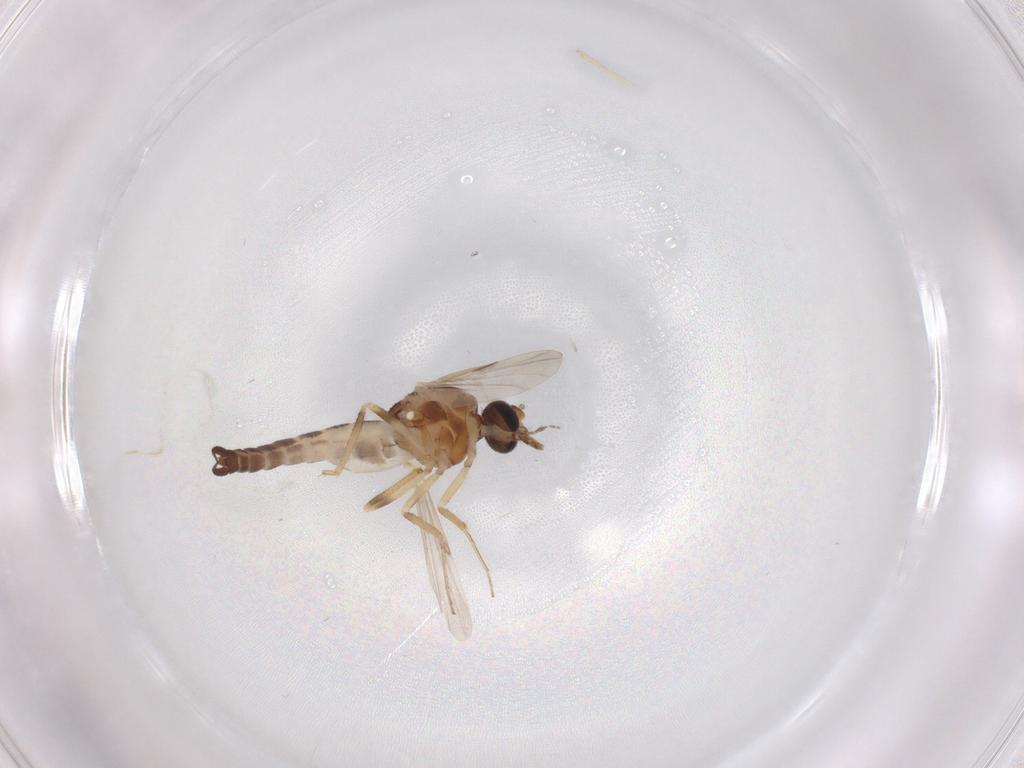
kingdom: Animalia
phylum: Arthropoda
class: Insecta
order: Diptera
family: Ceratopogonidae
